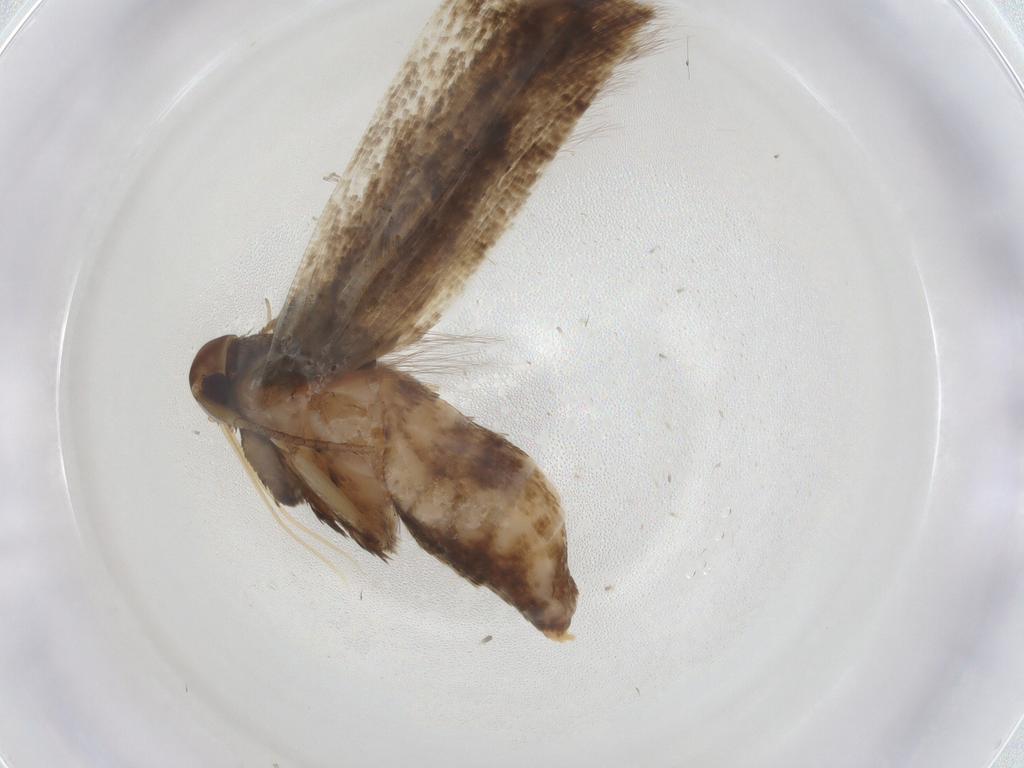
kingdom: Animalia
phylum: Arthropoda
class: Insecta
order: Lepidoptera
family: Cosmopterigidae
